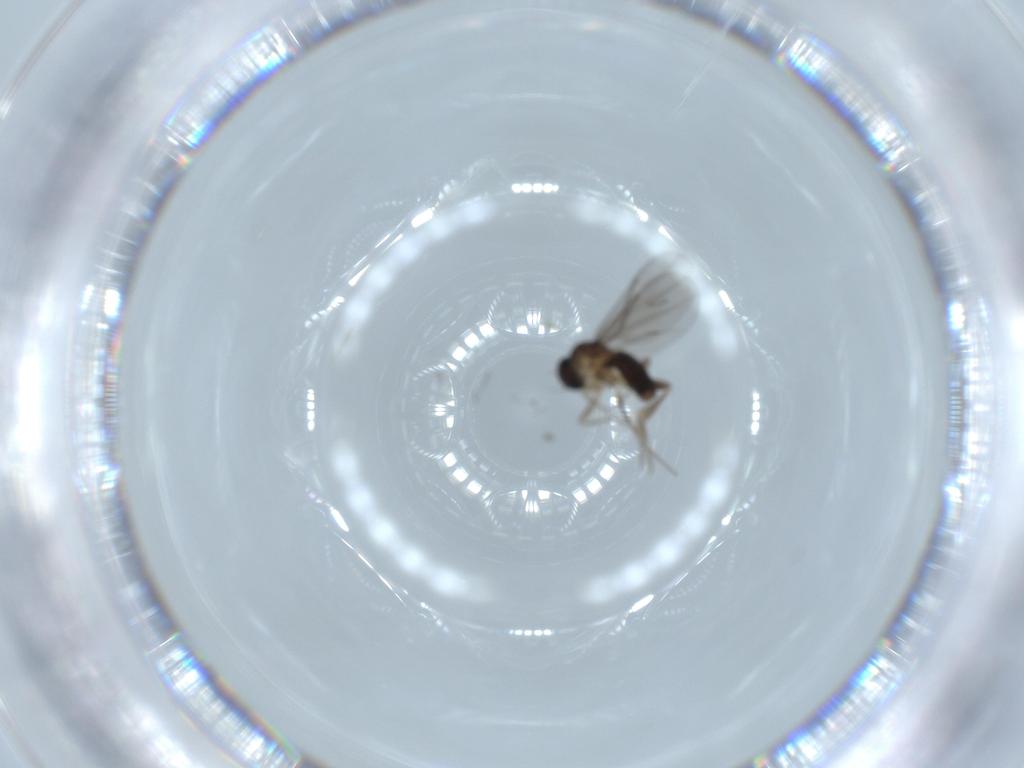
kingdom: Animalia
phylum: Arthropoda
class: Insecta
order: Diptera
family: Phoridae
